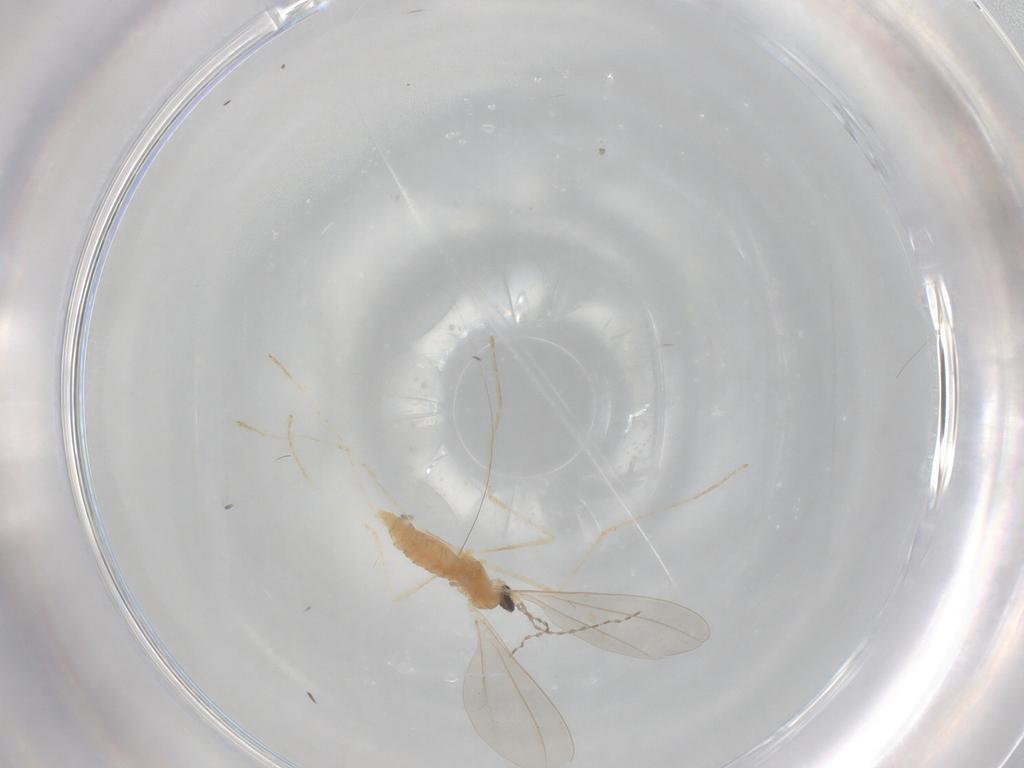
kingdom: Animalia
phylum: Arthropoda
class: Insecta
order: Diptera
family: Cecidomyiidae
